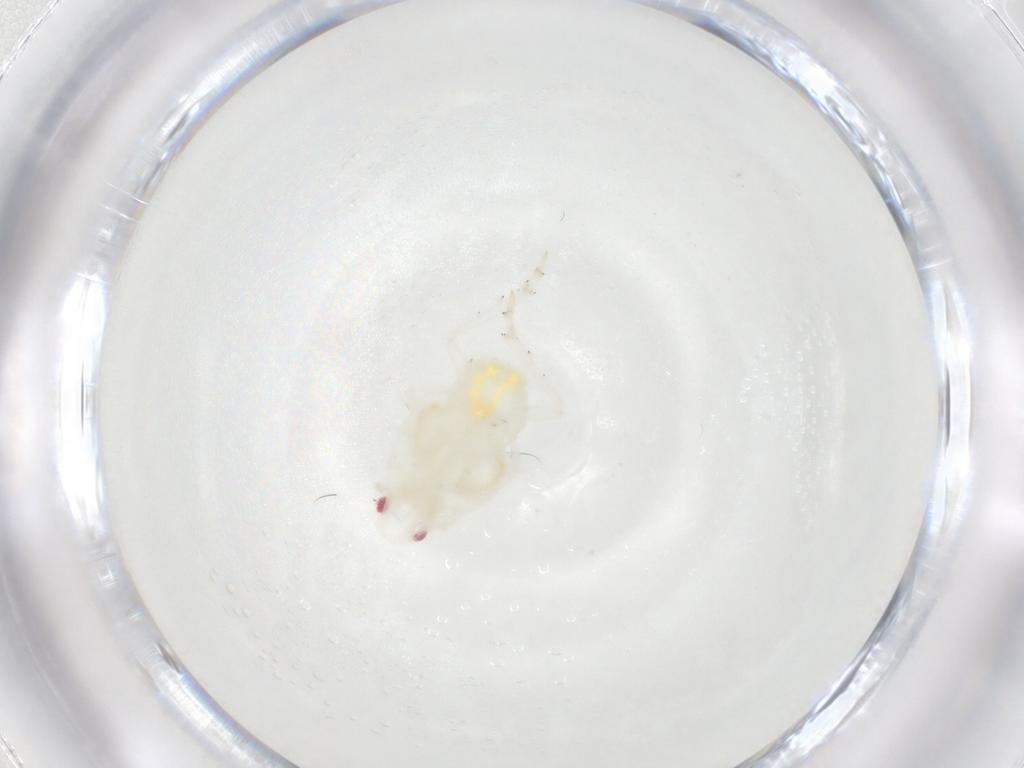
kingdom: Animalia
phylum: Arthropoda
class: Insecta
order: Hemiptera
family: Flatidae
